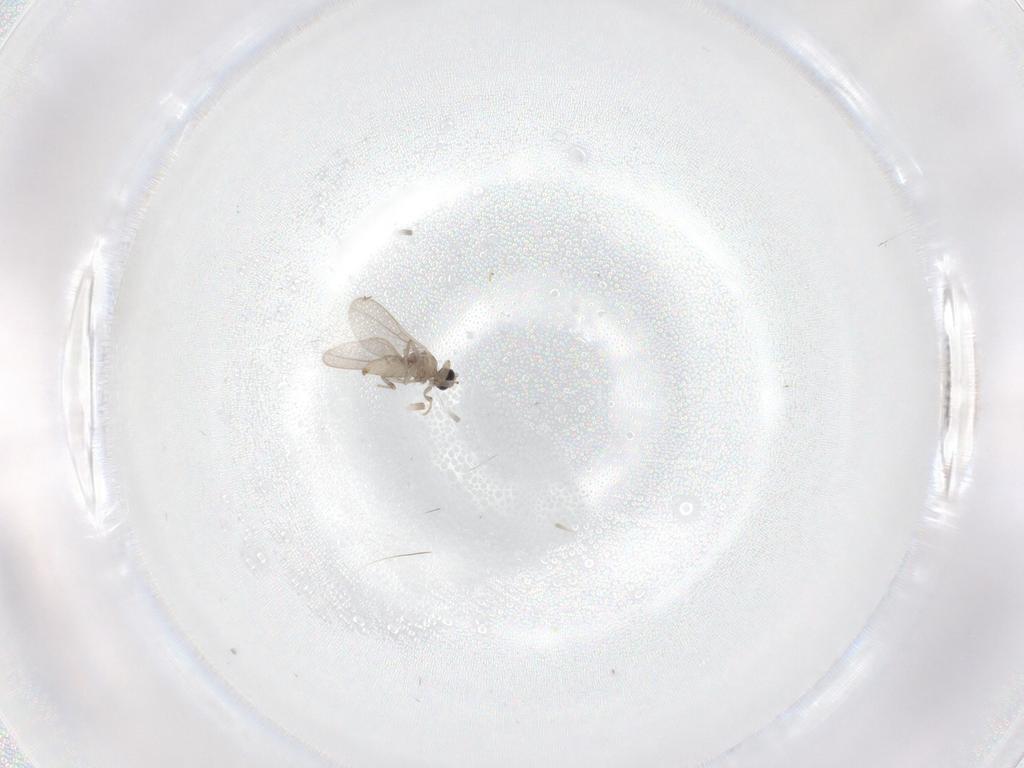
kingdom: Animalia
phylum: Arthropoda
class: Insecta
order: Diptera
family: Cecidomyiidae
